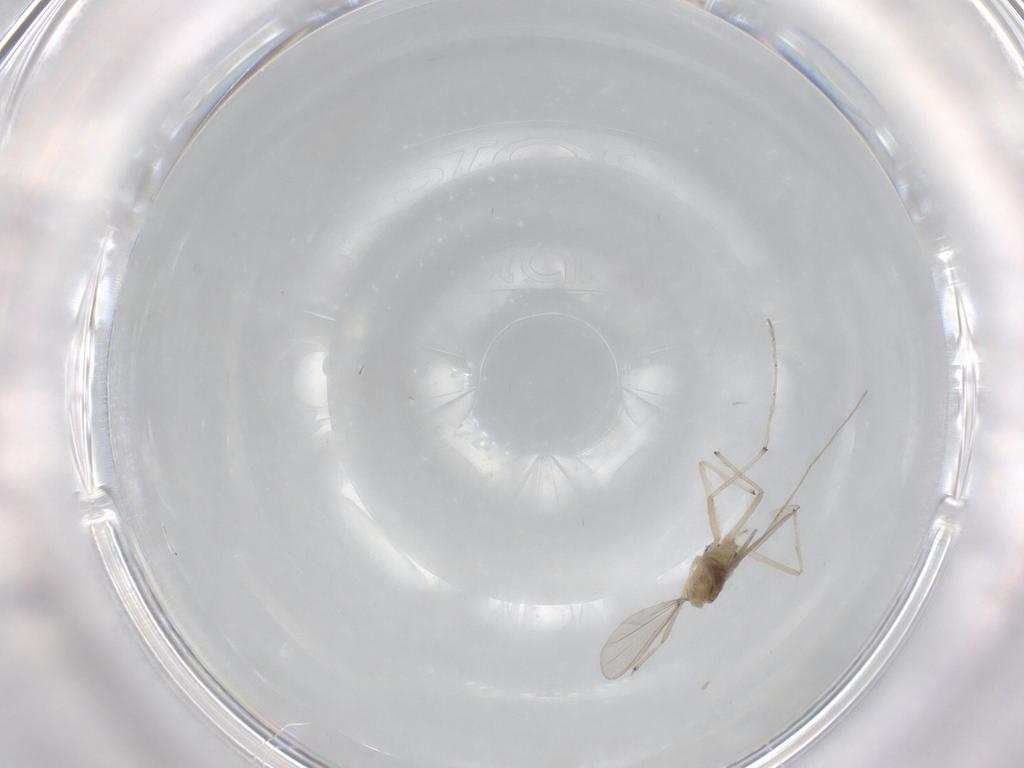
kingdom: Animalia
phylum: Arthropoda
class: Insecta
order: Diptera
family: Chironomidae
